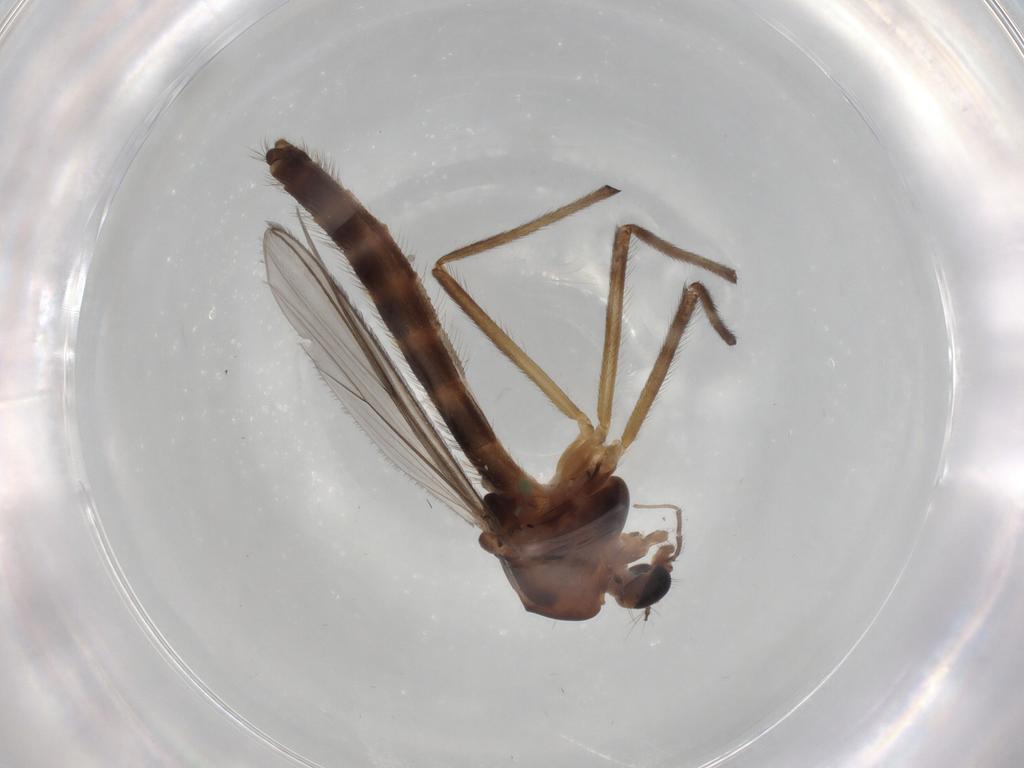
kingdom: Animalia
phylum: Arthropoda
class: Insecta
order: Diptera
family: Chironomidae
